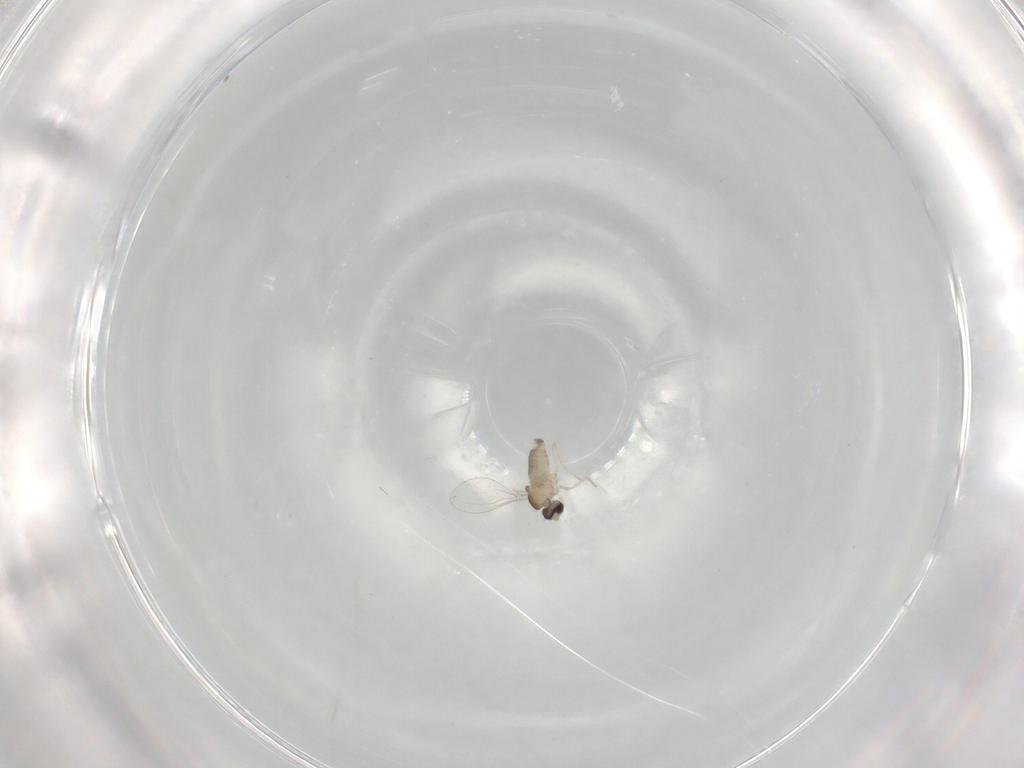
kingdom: Animalia
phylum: Arthropoda
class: Insecta
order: Diptera
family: Cecidomyiidae
